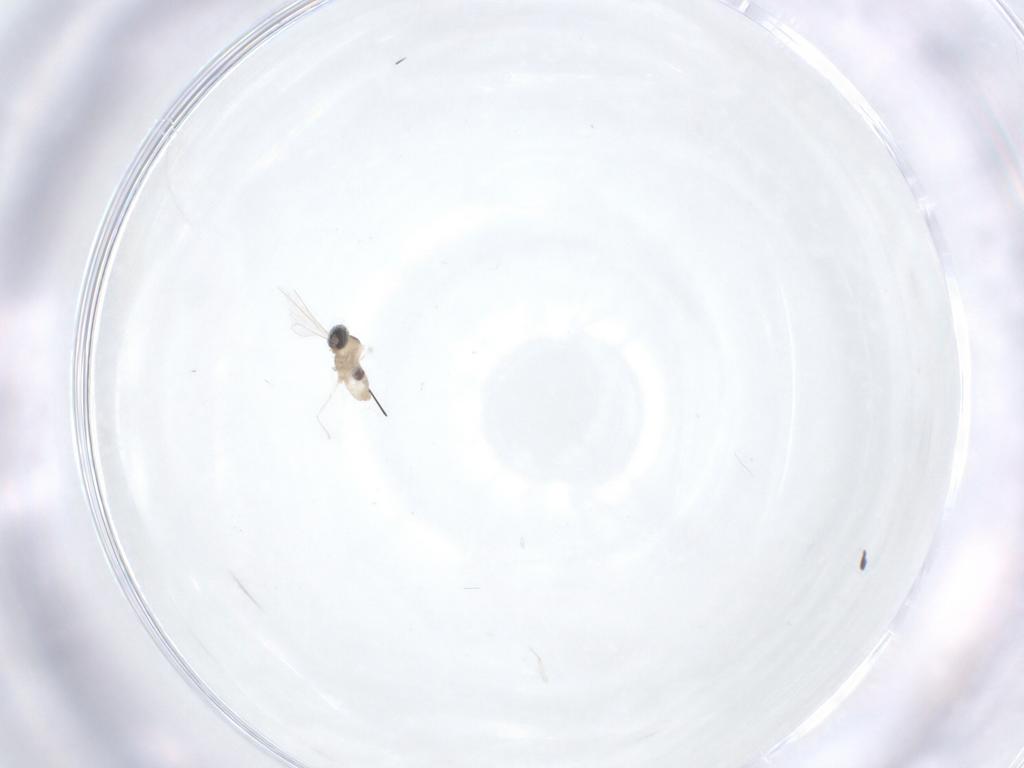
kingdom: Animalia
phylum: Arthropoda
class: Insecta
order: Diptera
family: Cecidomyiidae
